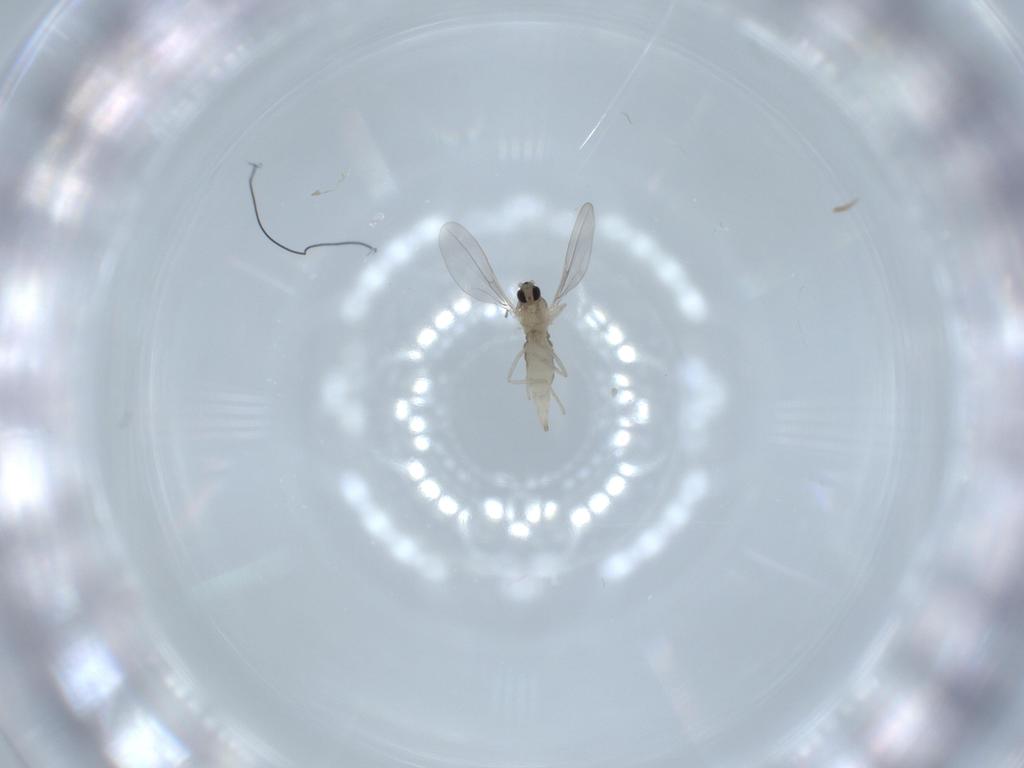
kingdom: Animalia
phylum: Arthropoda
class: Insecta
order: Diptera
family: Cecidomyiidae
